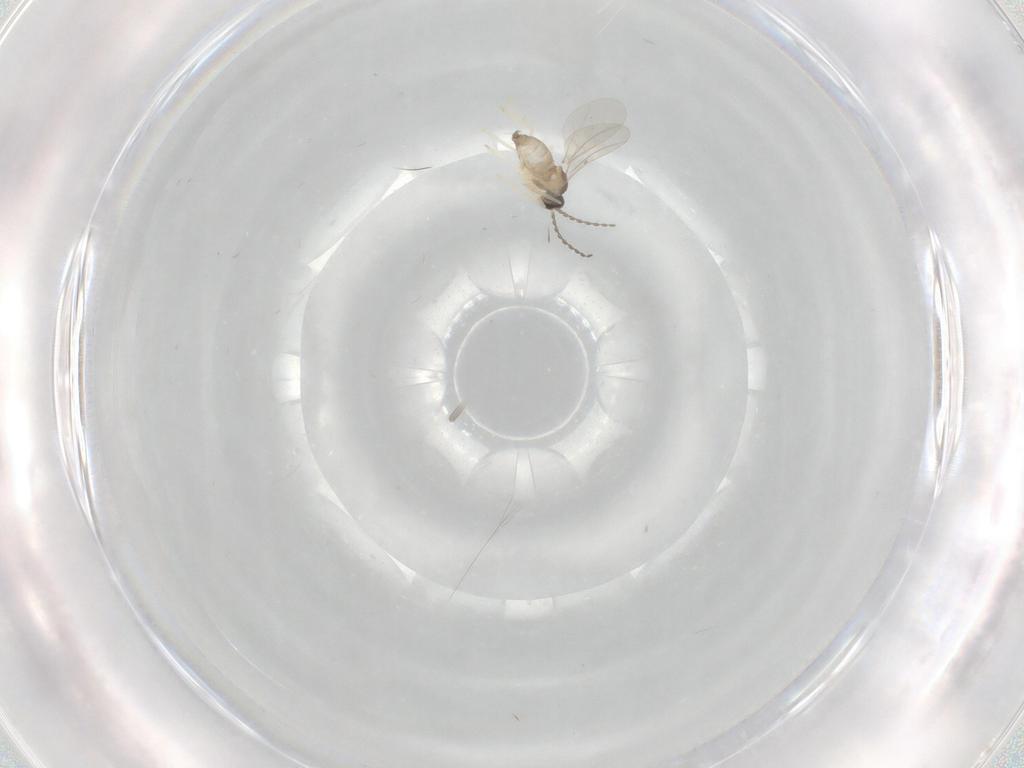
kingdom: Animalia
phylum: Arthropoda
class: Insecta
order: Diptera
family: Cecidomyiidae
